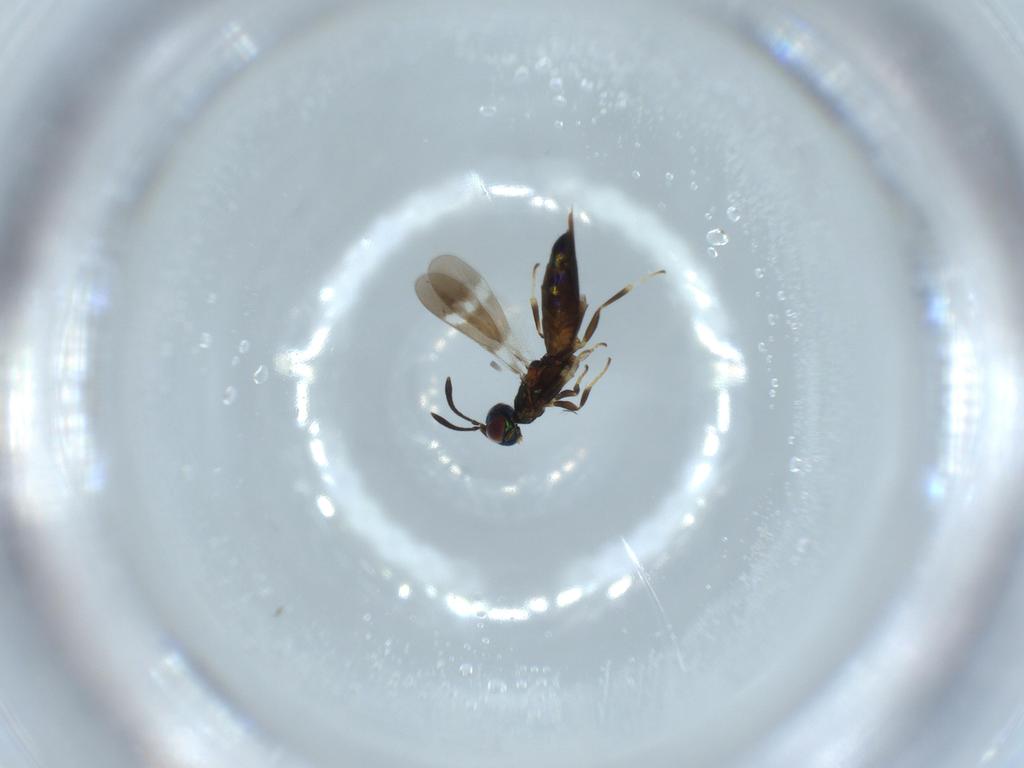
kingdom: Animalia
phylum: Arthropoda
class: Insecta
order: Hymenoptera
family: Eupelmidae
